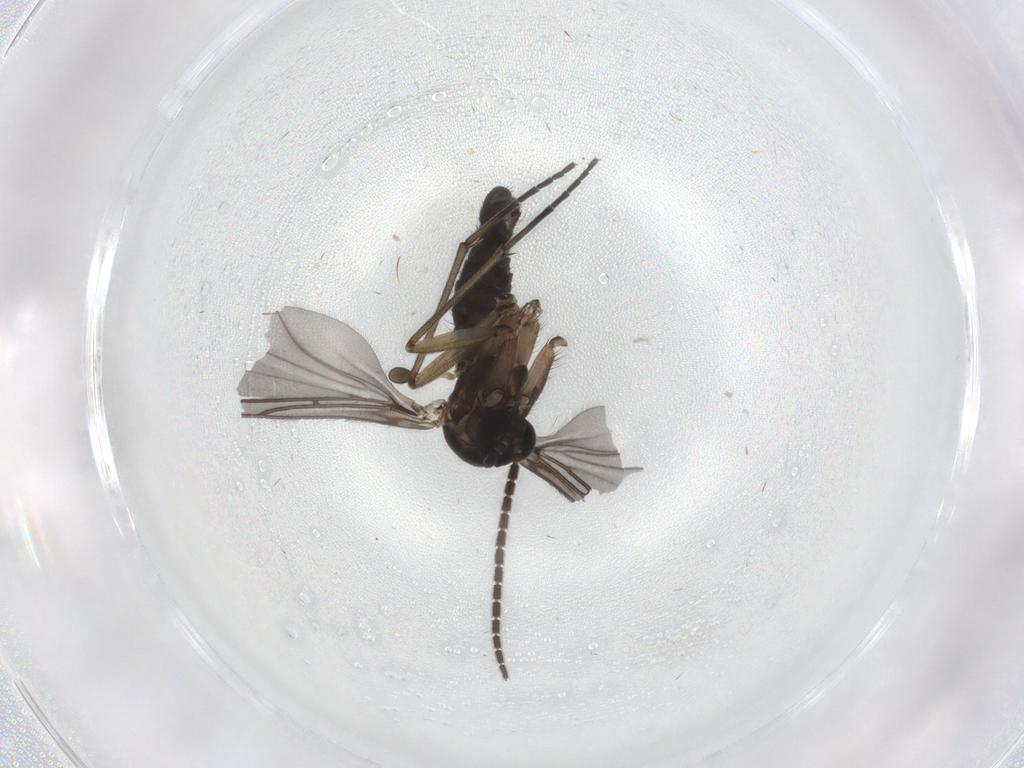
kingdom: Animalia
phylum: Arthropoda
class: Insecta
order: Diptera
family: Sciaridae
